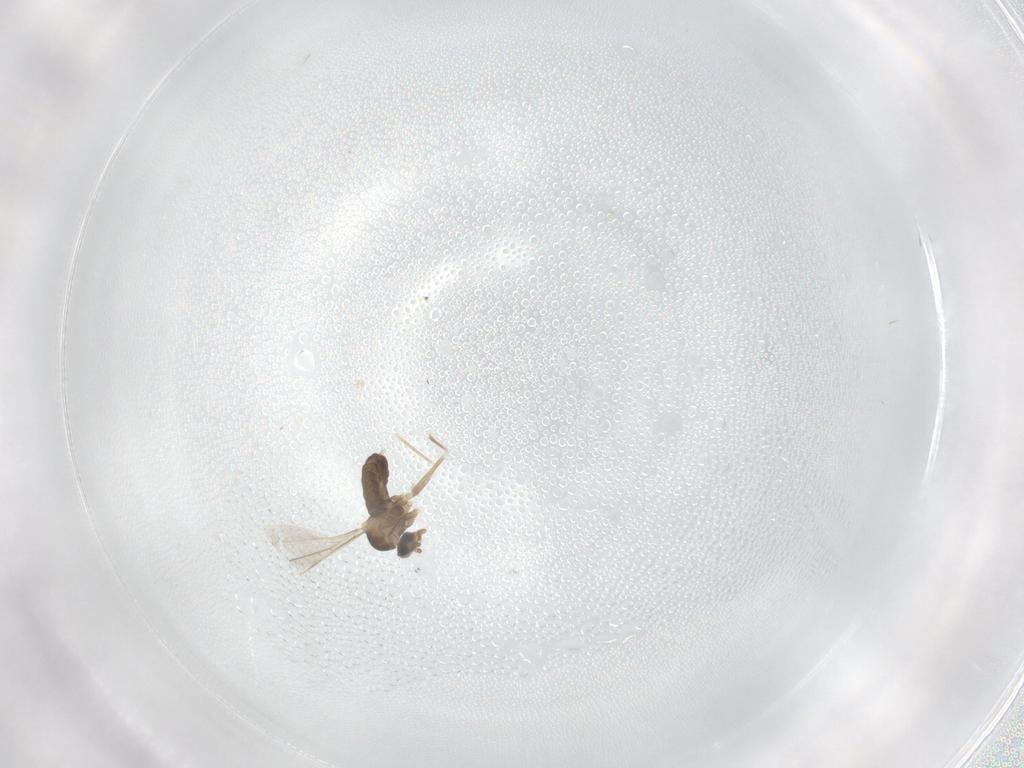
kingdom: Animalia
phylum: Arthropoda
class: Insecta
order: Diptera
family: Cecidomyiidae
